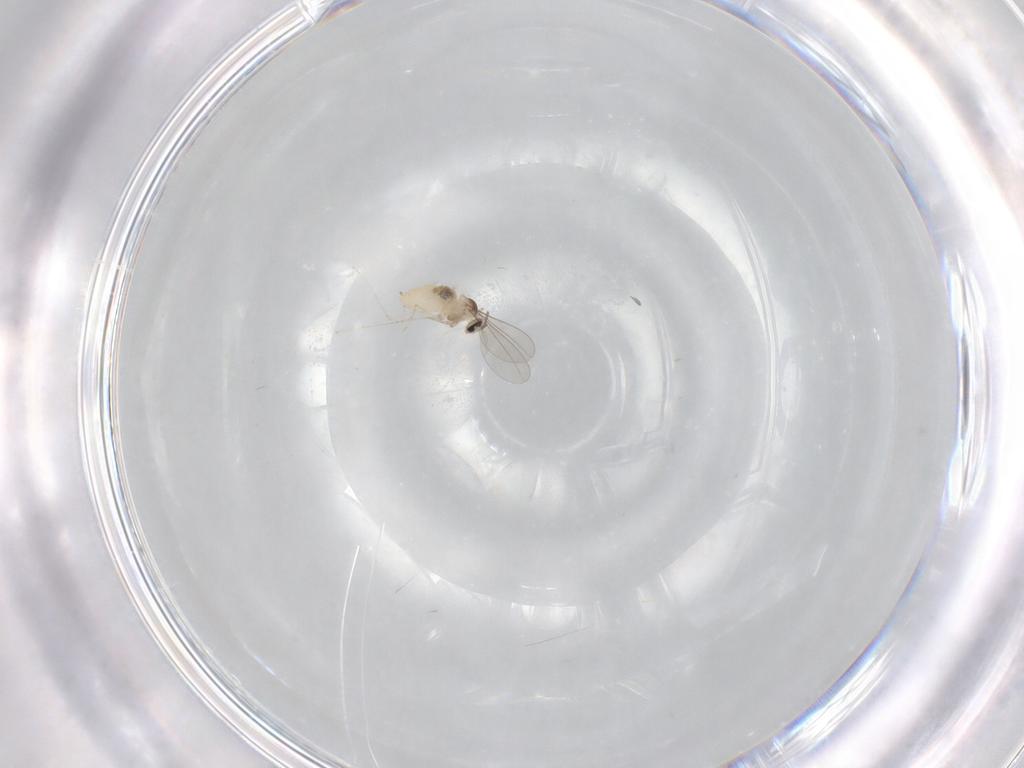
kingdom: Animalia
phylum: Arthropoda
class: Insecta
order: Diptera
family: Cecidomyiidae
